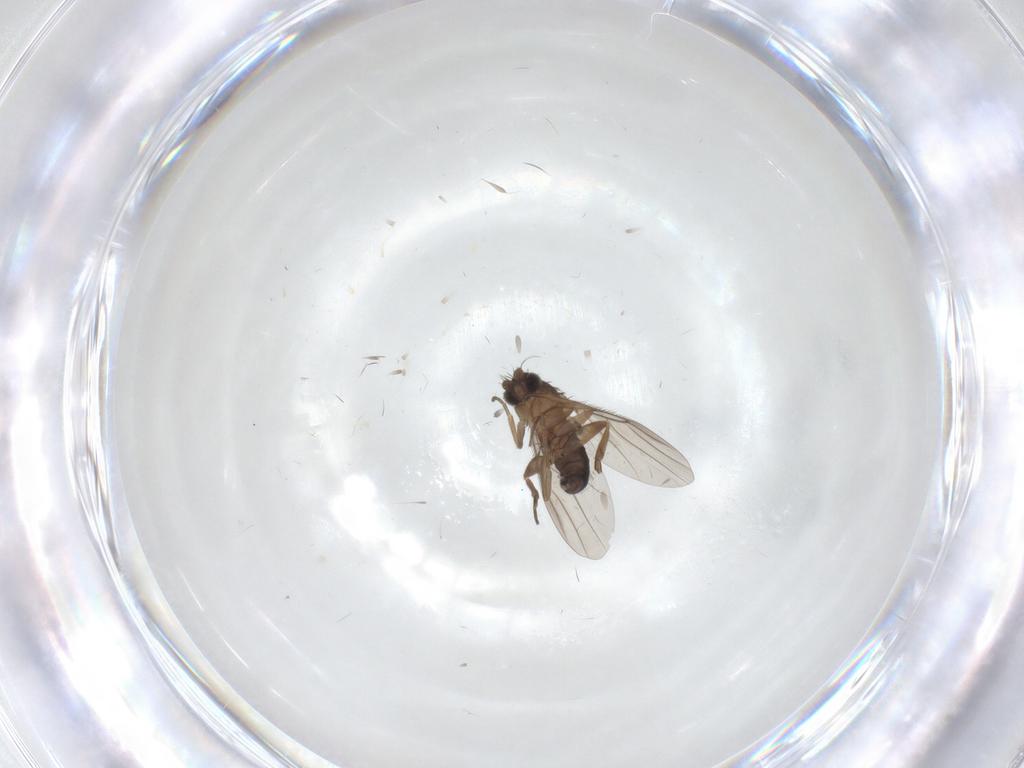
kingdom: Animalia
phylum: Arthropoda
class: Insecta
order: Diptera
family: Phoridae
